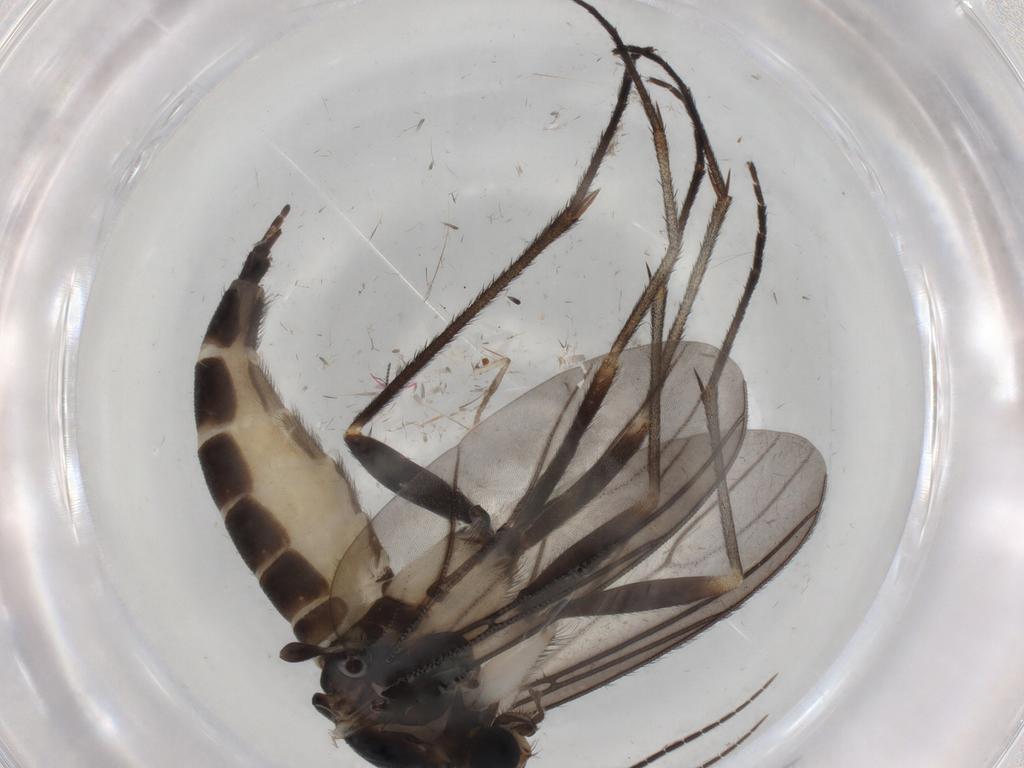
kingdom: Animalia
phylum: Arthropoda
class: Insecta
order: Diptera
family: Sciaridae
